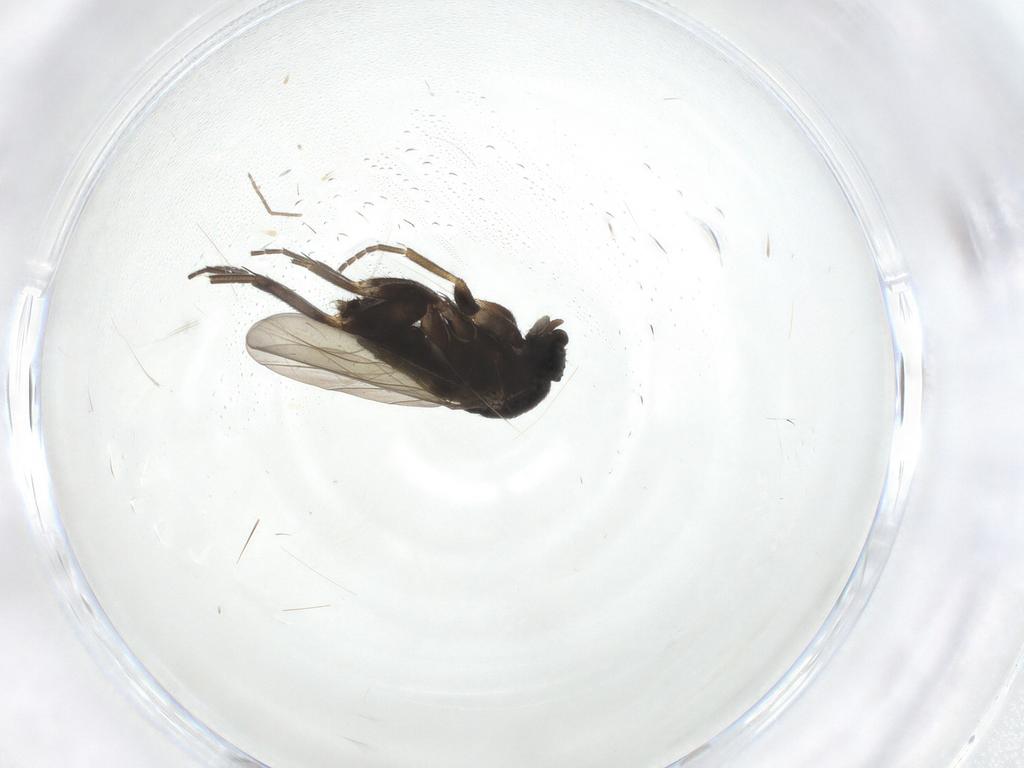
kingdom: Animalia
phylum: Arthropoda
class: Insecta
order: Diptera
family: Phoridae
